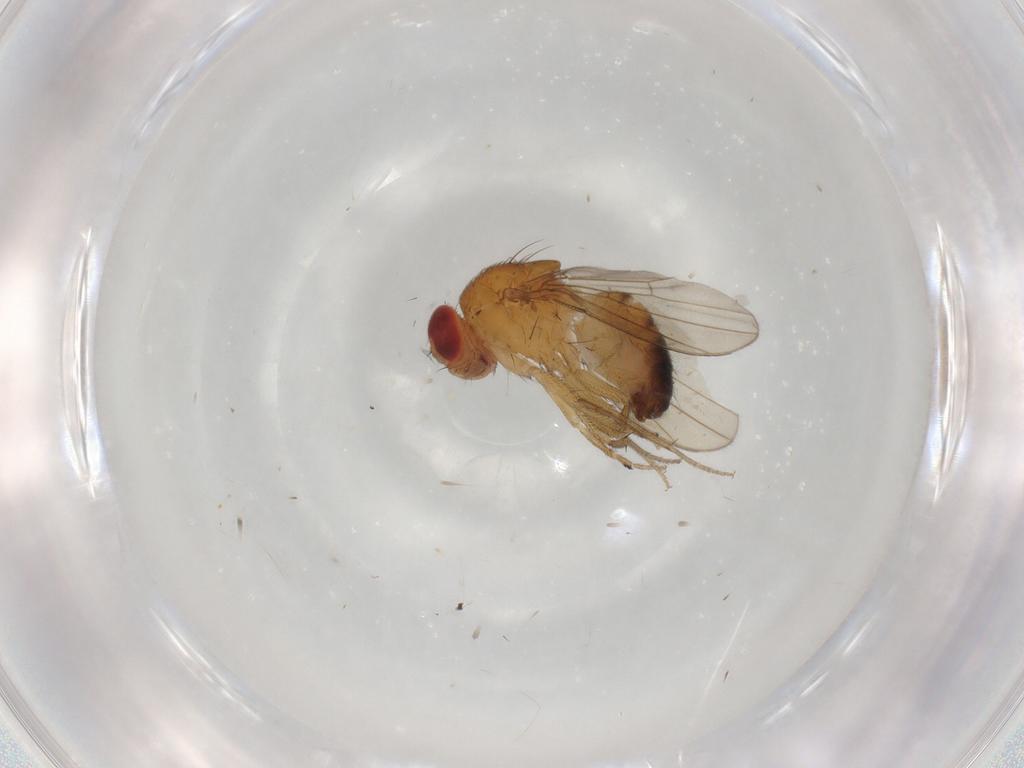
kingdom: Animalia
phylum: Arthropoda
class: Insecta
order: Diptera
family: Drosophilidae
